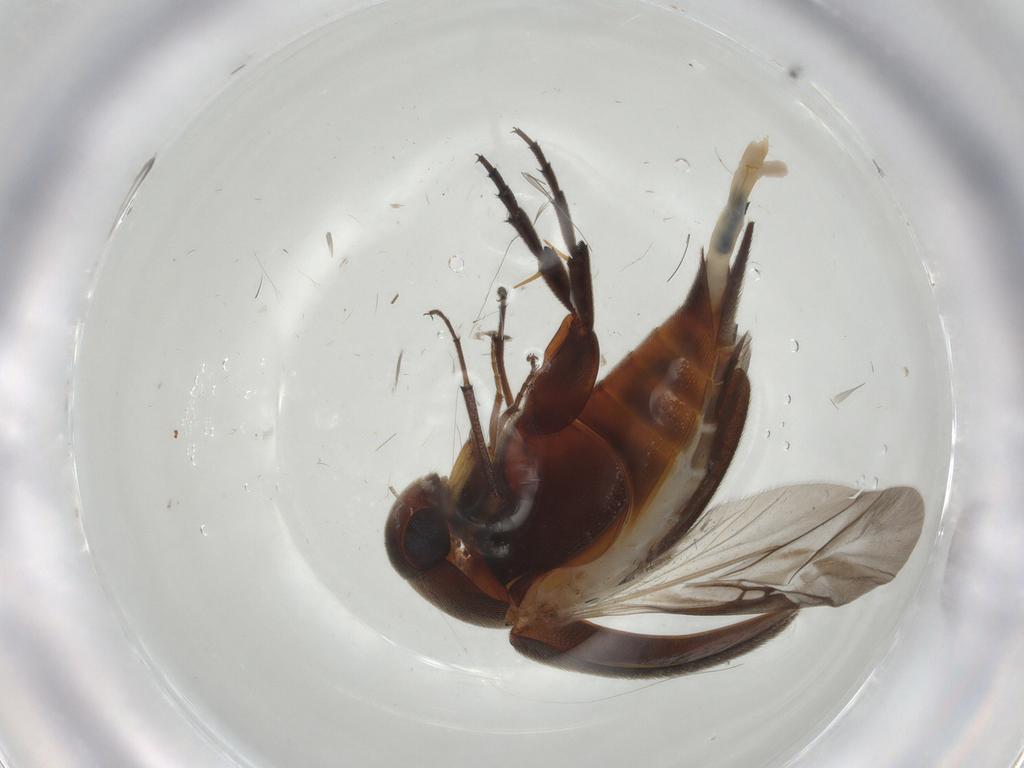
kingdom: Animalia
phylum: Arthropoda
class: Insecta
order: Coleoptera
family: Mordellidae
